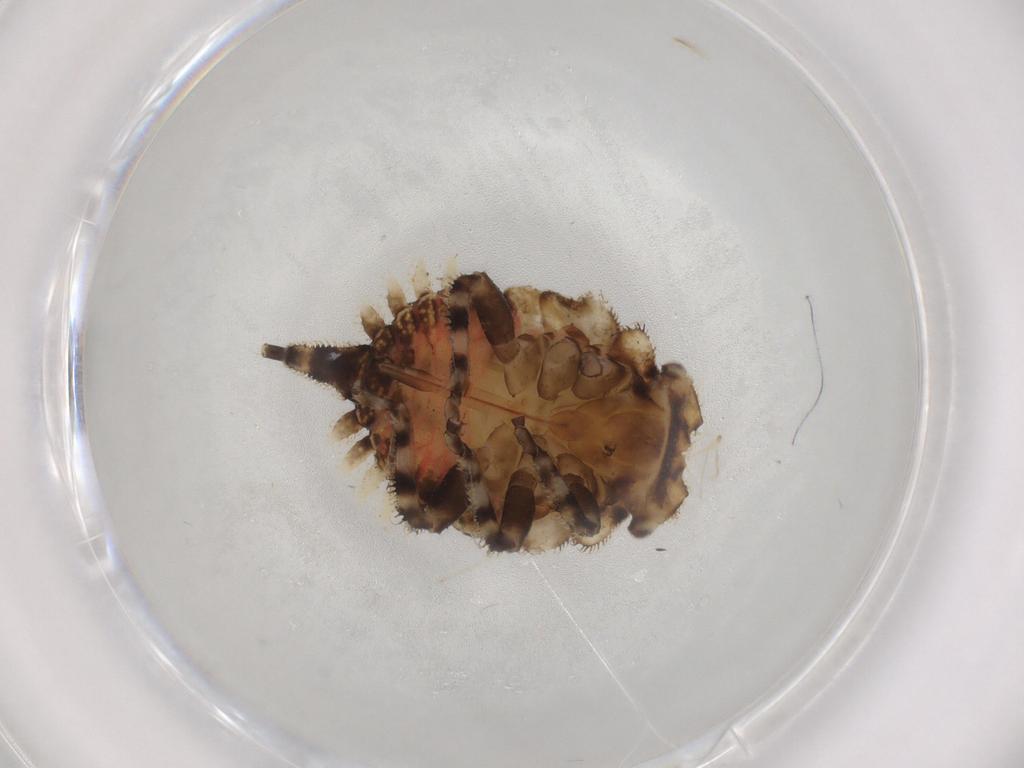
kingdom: Animalia
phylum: Arthropoda
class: Insecta
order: Hemiptera
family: Membracidae
